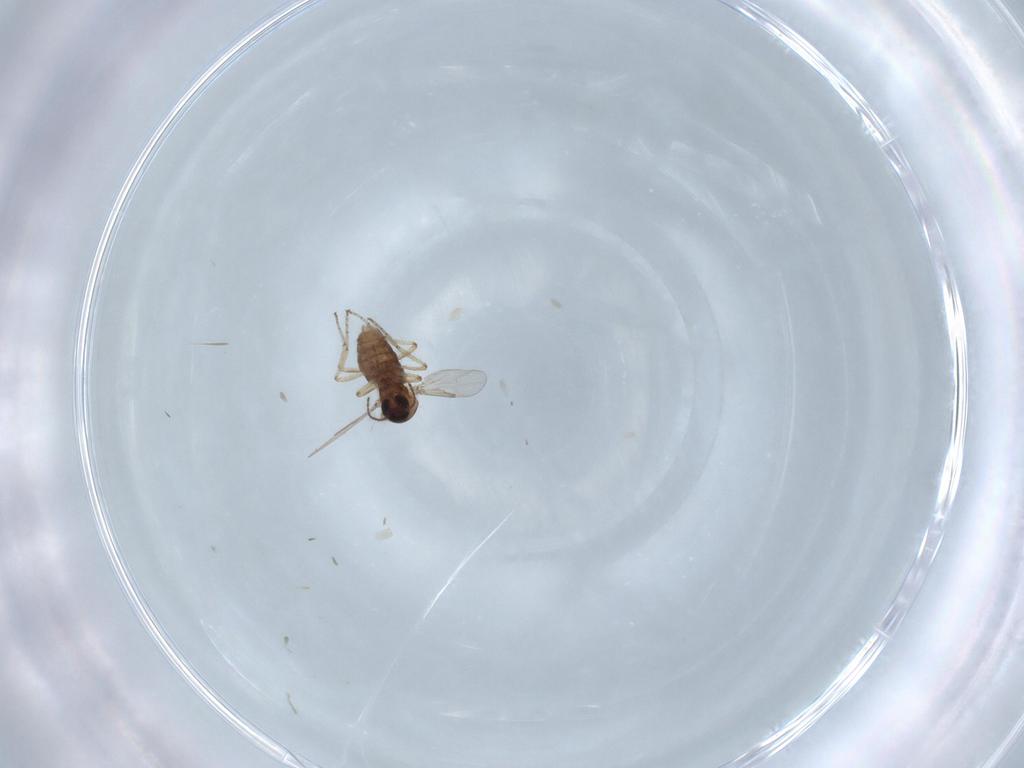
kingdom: Animalia
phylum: Arthropoda
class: Insecta
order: Diptera
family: Ceratopogonidae
